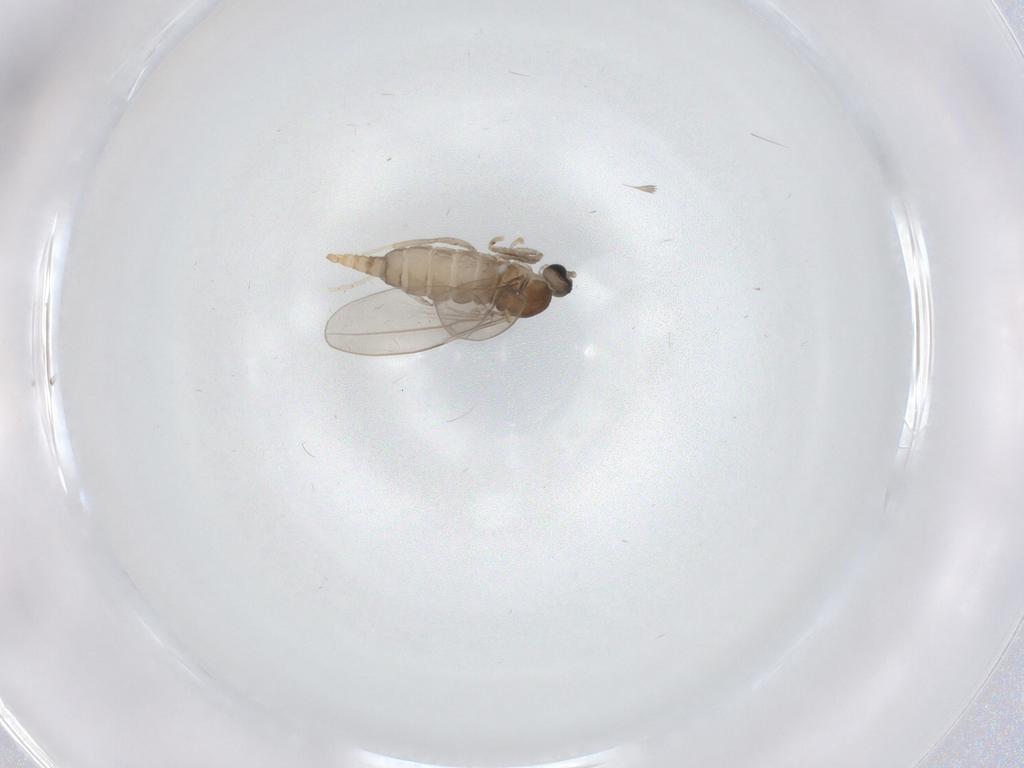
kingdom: Animalia
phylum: Arthropoda
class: Insecta
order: Diptera
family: Cecidomyiidae
